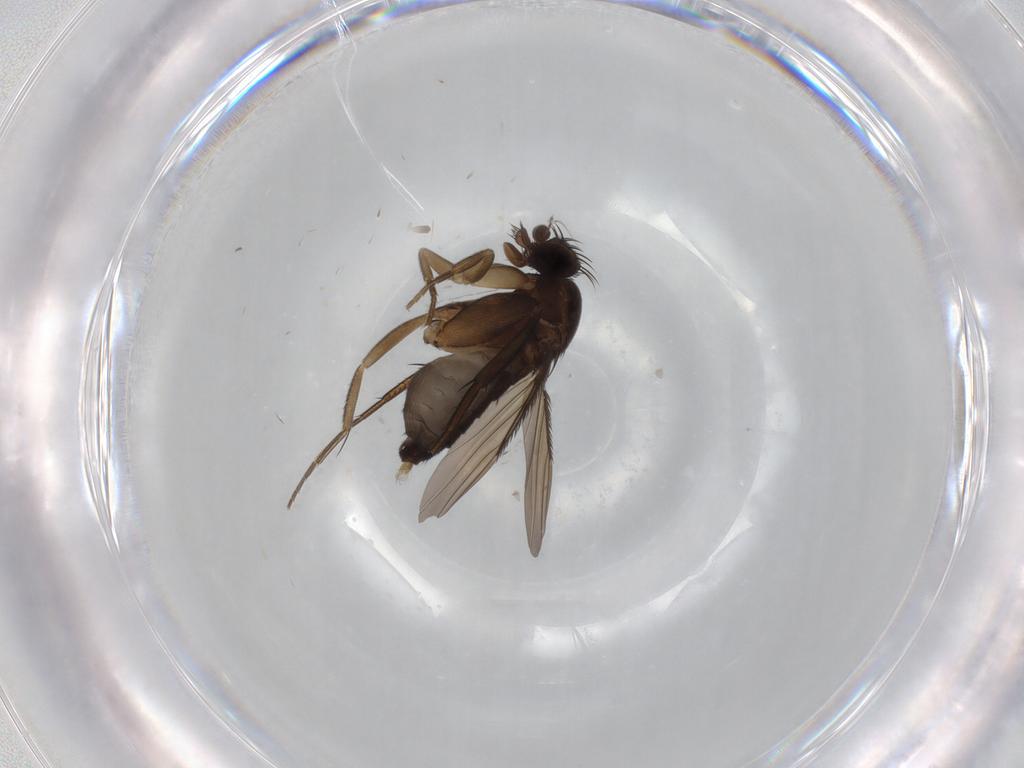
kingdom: Animalia
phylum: Arthropoda
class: Insecta
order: Diptera
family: Phoridae
